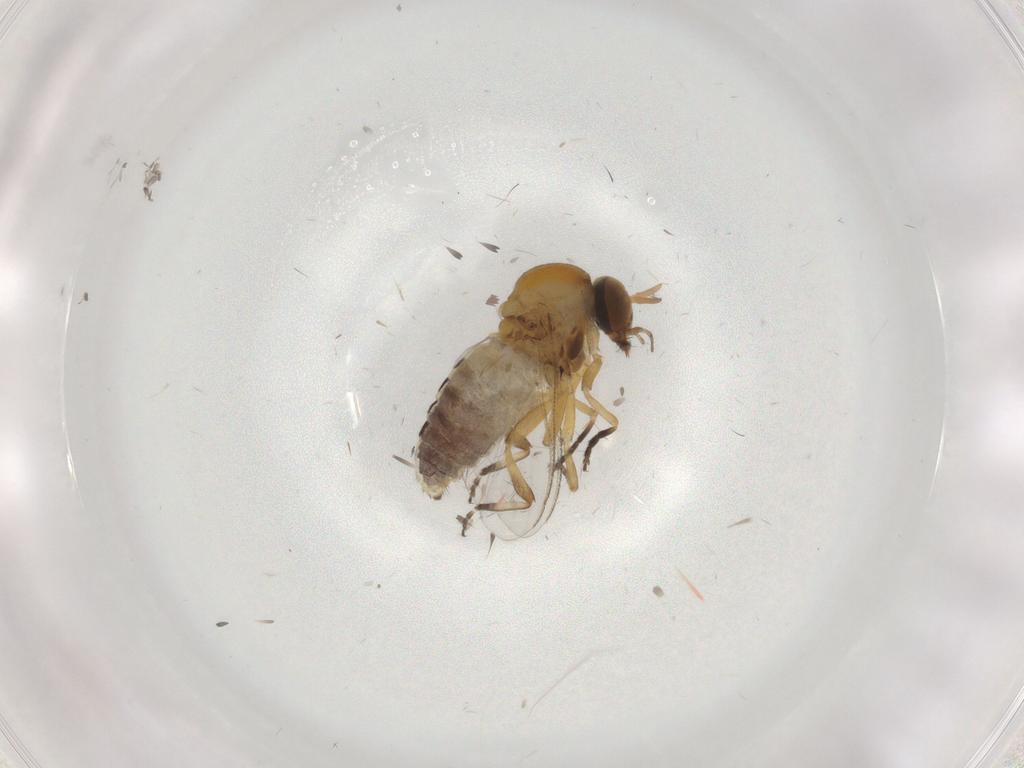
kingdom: Animalia
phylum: Arthropoda
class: Insecta
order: Diptera
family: Simuliidae
